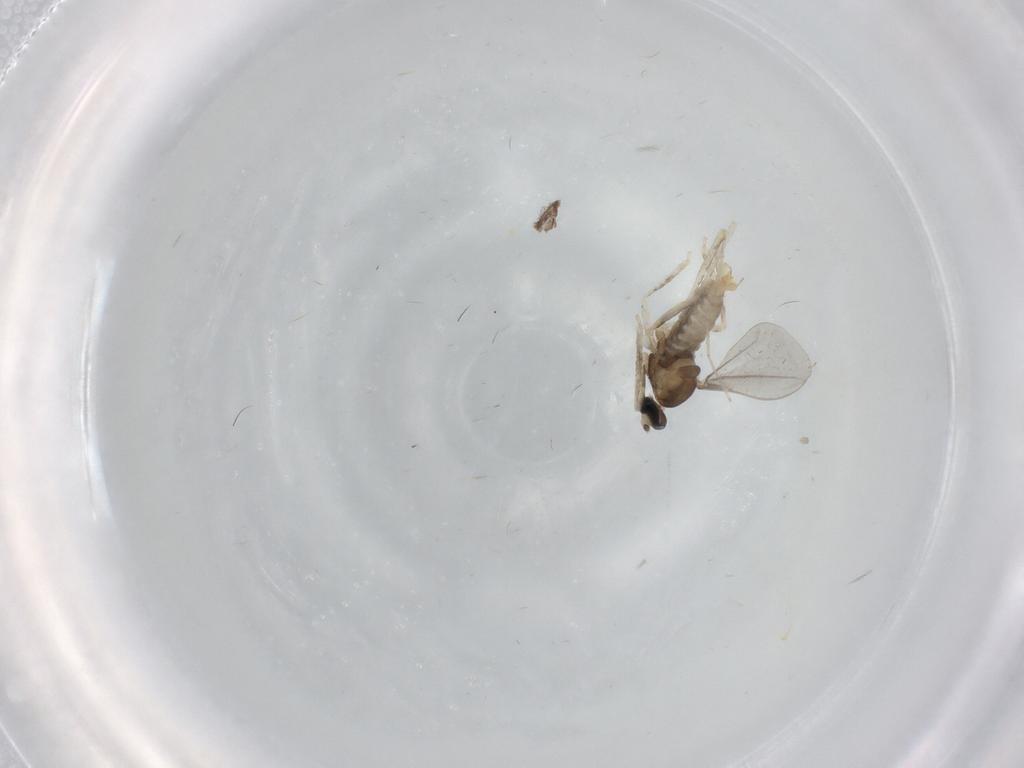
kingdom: Animalia
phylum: Arthropoda
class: Insecta
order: Diptera
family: Cecidomyiidae
